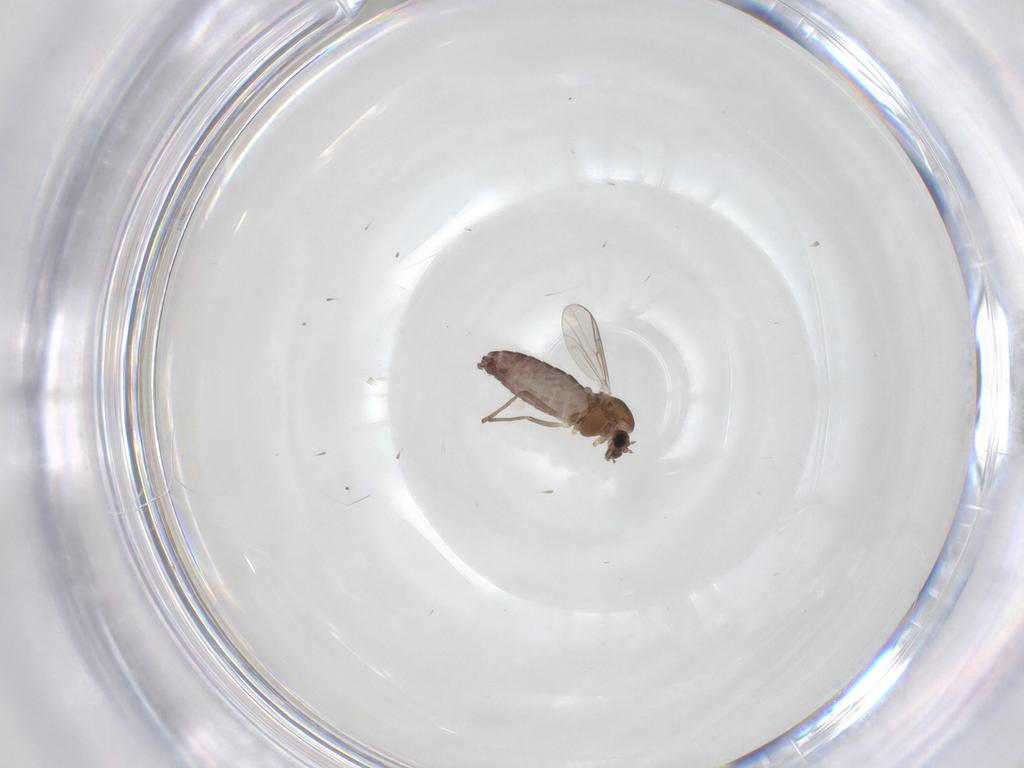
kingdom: Animalia
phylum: Arthropoda
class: Insecta
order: Diptera
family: Chironomidae
